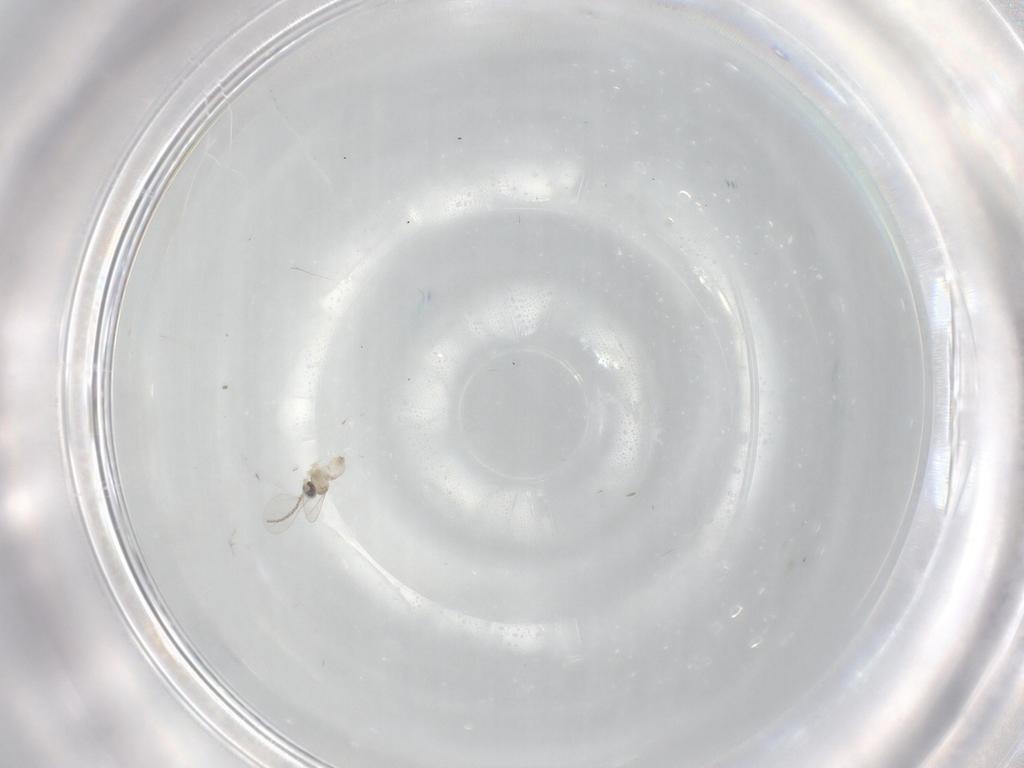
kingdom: Animalia
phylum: Arthropoda
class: Insecta
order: Diptera
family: Cecidomyiidae
